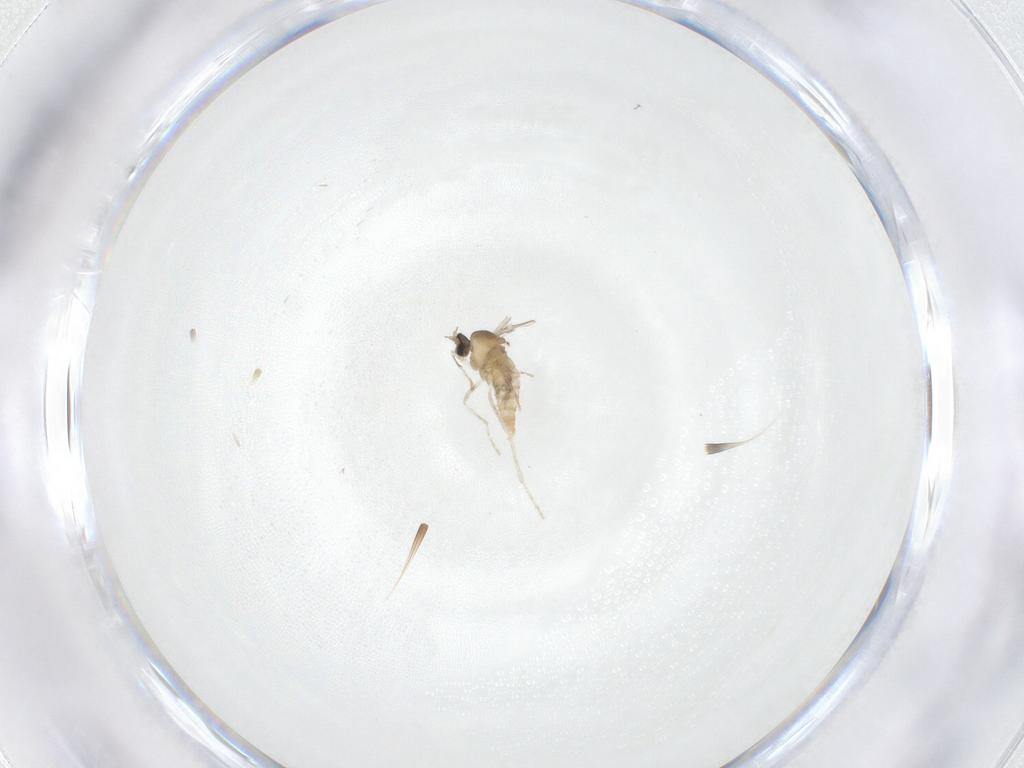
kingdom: Animalia
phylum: Arthropoda
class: Insecta
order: Diptera
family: Cecidomyiidae
